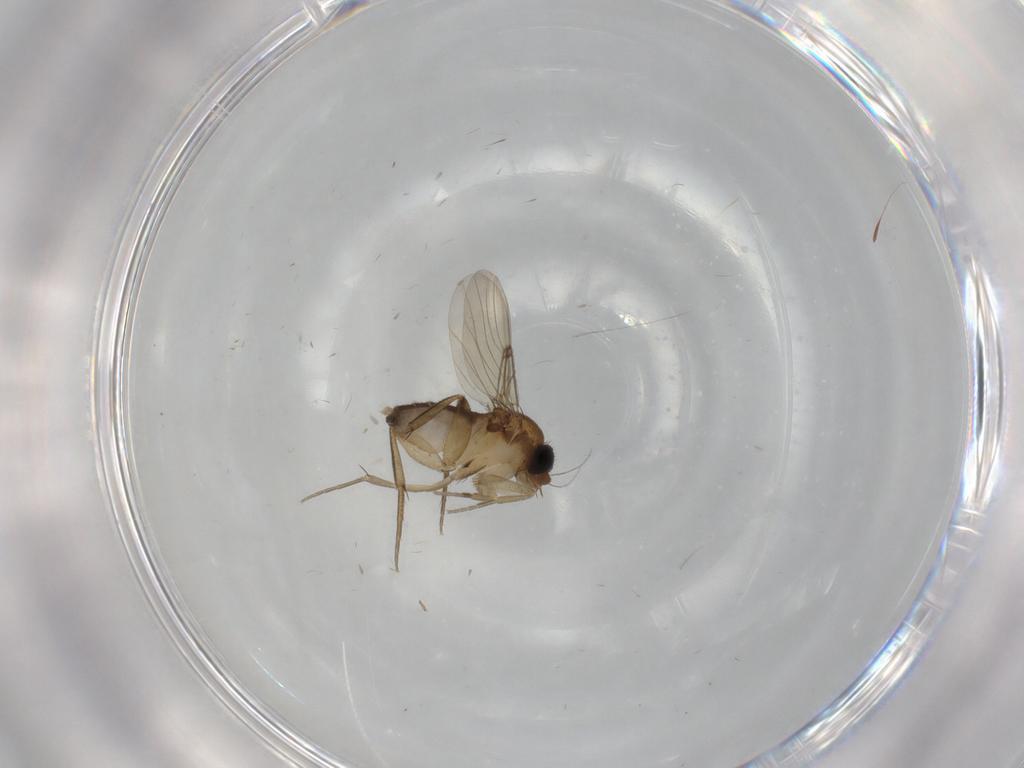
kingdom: Animalia
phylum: Arthropoda
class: Insecta
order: Diptera
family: Phoridae
